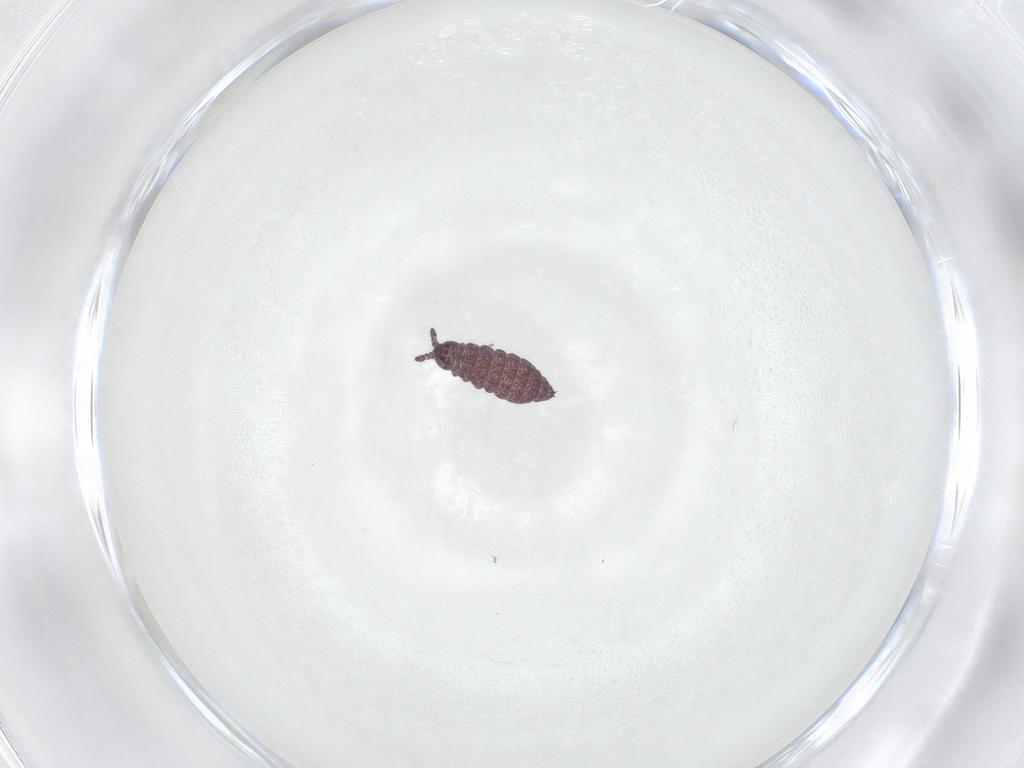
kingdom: Animalia
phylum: Arthropoda
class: Collembola
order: Poduromorpha
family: Hypogastruridae
